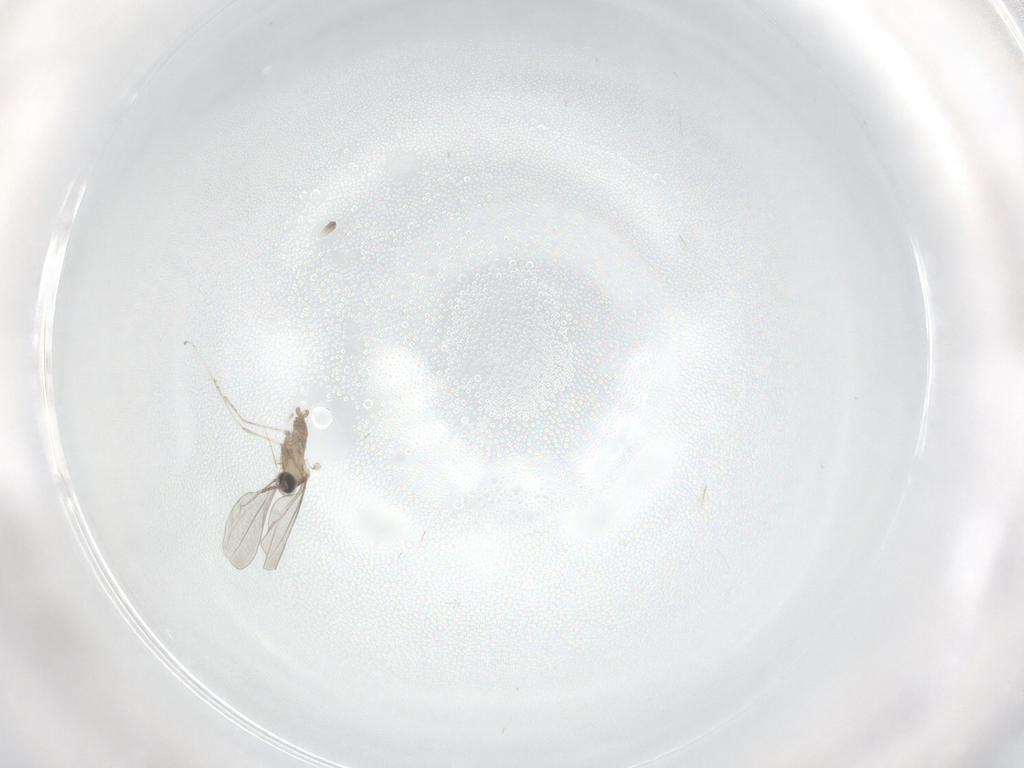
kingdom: Animalia
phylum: Arthropoda
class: Insecta
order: Diptera
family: Cecidomyiidae
